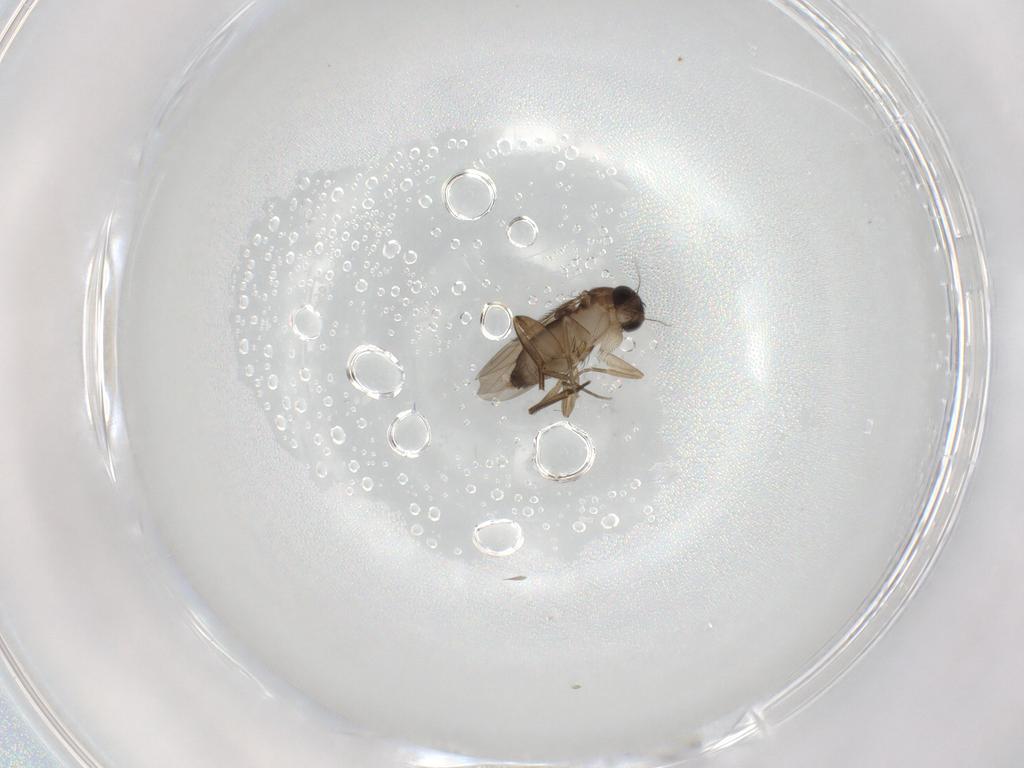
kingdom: Animalia
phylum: Arthropoda
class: Insecta
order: Diptera
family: Phoridae
